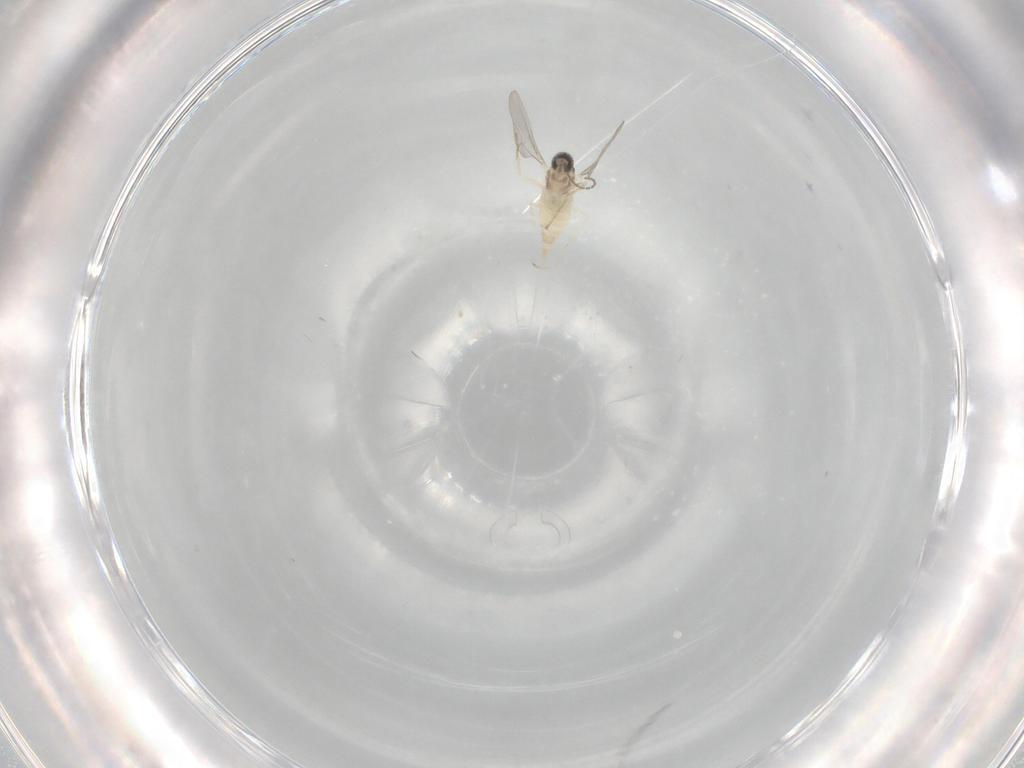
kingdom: Animalia
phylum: Arthropoda
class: Insecta
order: Diptera
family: Cecidomyiidae
